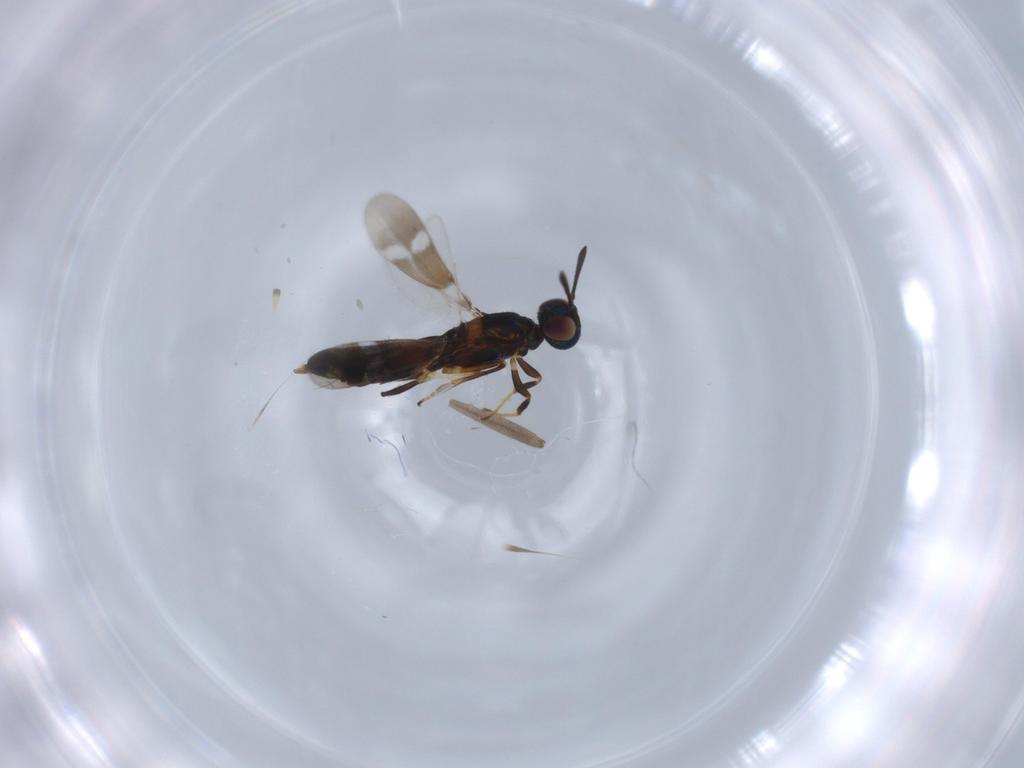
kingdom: Animalia
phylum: Arthropoda
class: Insecta
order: Hymenoptera
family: Eupelmidae
